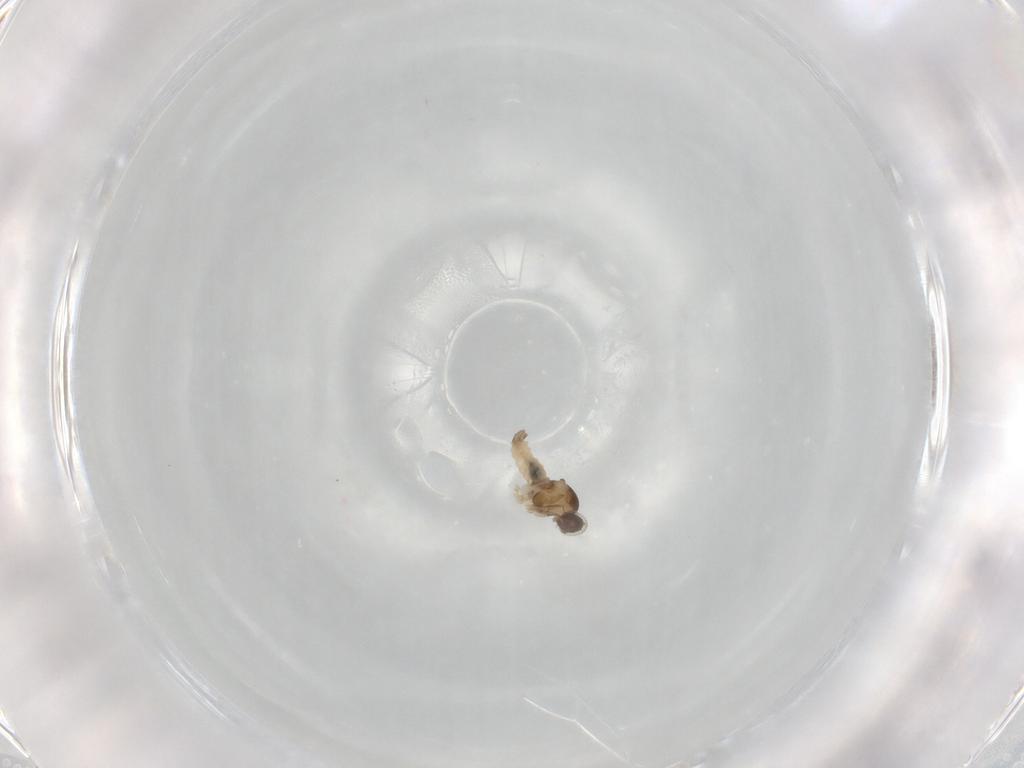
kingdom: Animalia
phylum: Arthropoda
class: Insecta
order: Diptera
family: Cecidomyiidae
